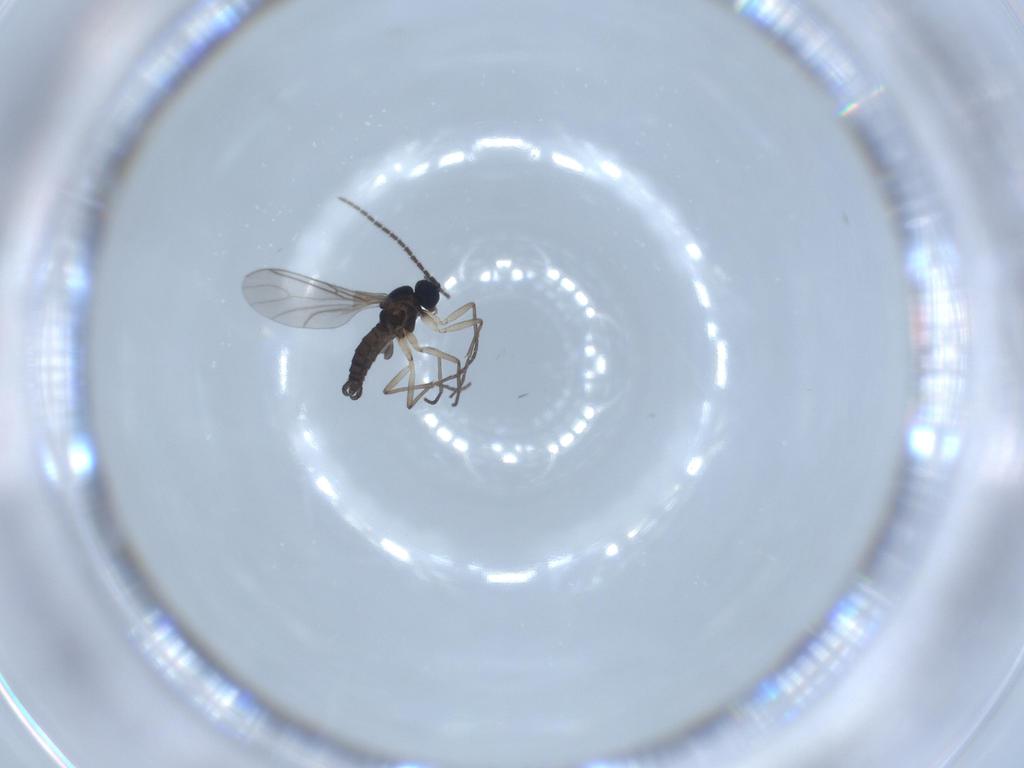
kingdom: Animalia
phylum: Arthropoda
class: Insecta
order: Diptera
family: Sciaridae
